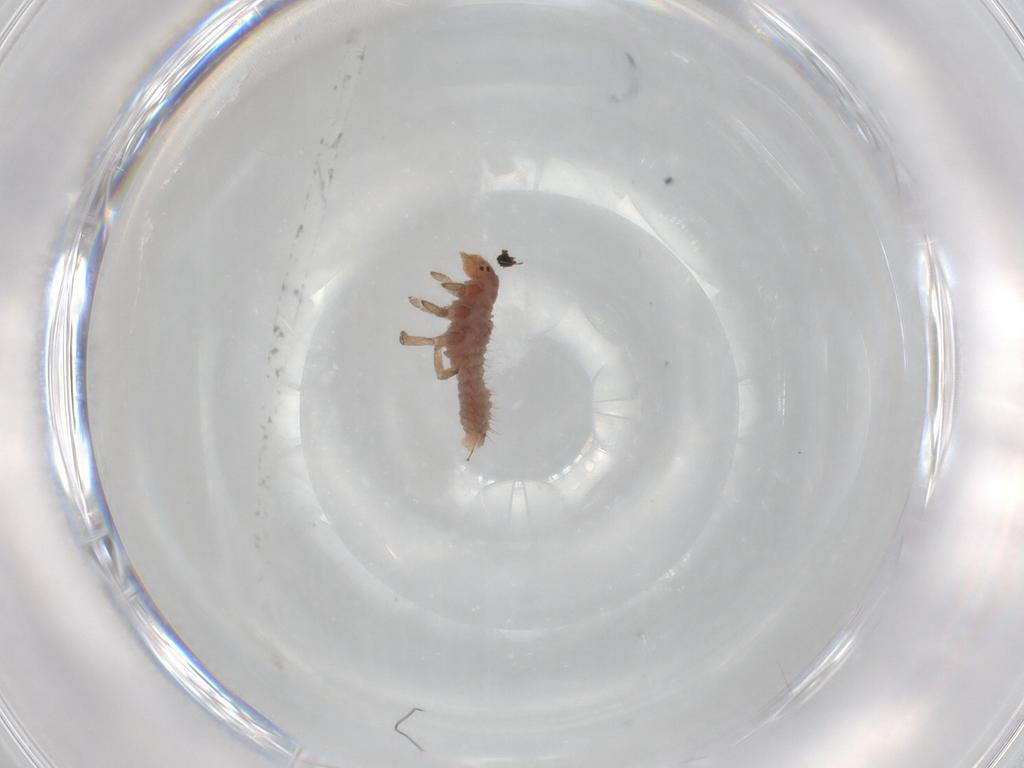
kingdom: Animalia
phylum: Arthropoda
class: Insecta
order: Coleoptera
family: Coccinellidae
